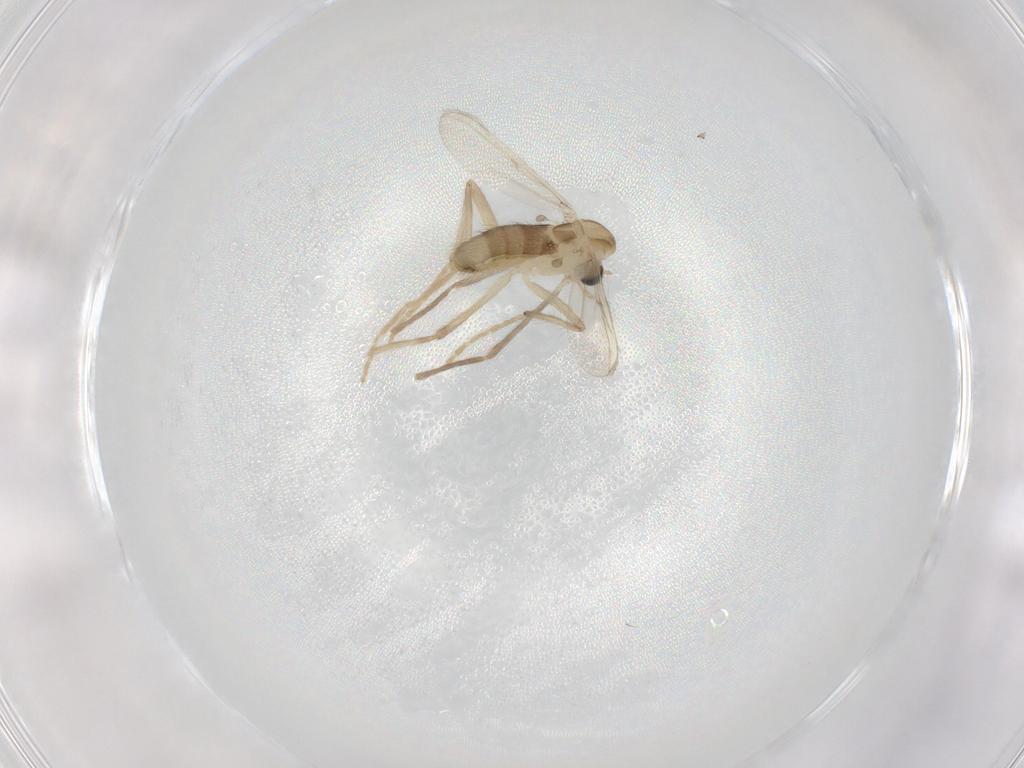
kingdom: Animalia
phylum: Arthropoda
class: Insecta
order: Diptera
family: Chironomidae
